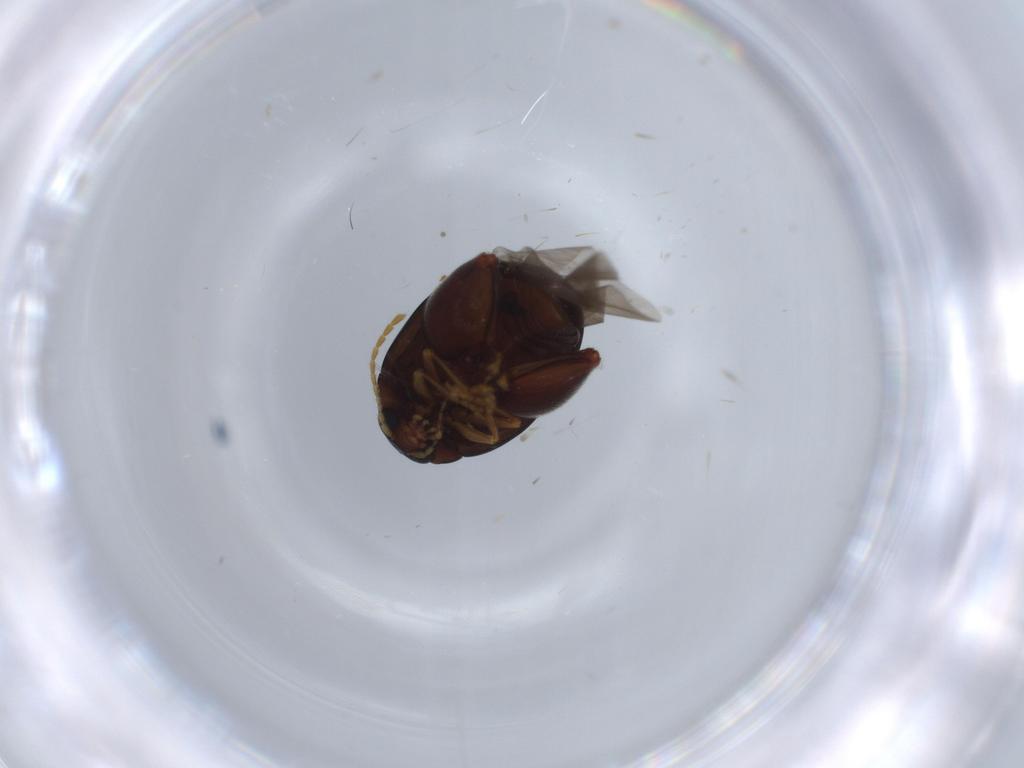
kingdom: Animalia
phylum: Arthropoda
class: Insecta
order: Coleoptera
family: Chrysomelidae
